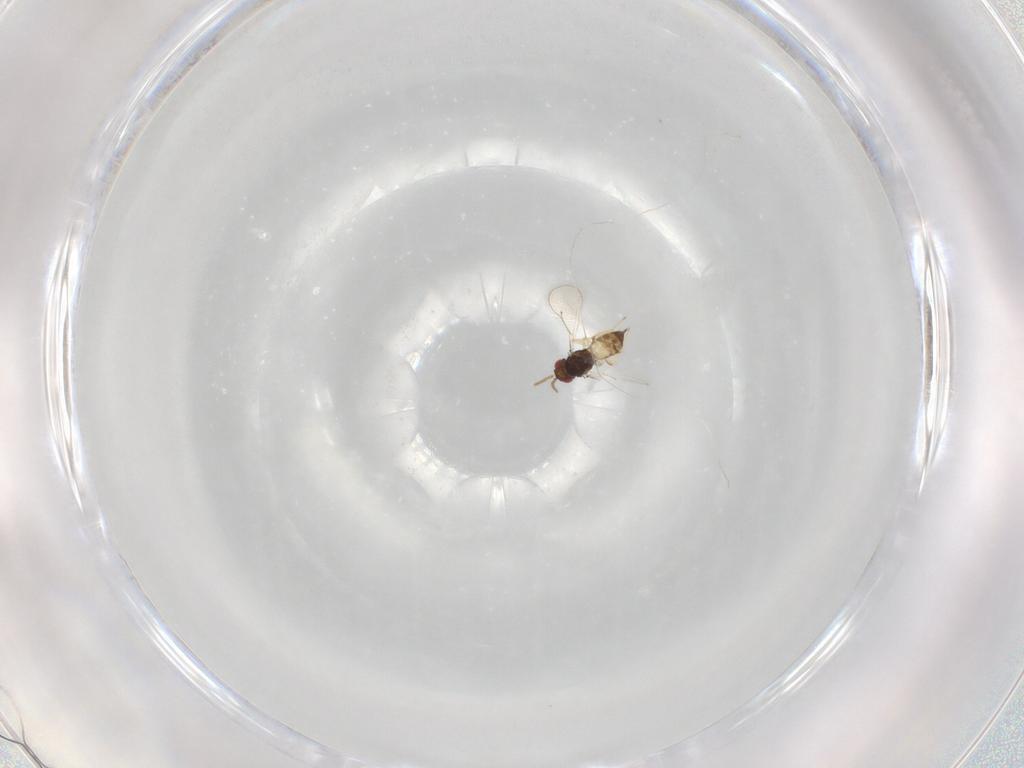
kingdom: Animalia
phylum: Arthropoda
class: Insecta
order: Hymenoptera
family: Eulophidae
